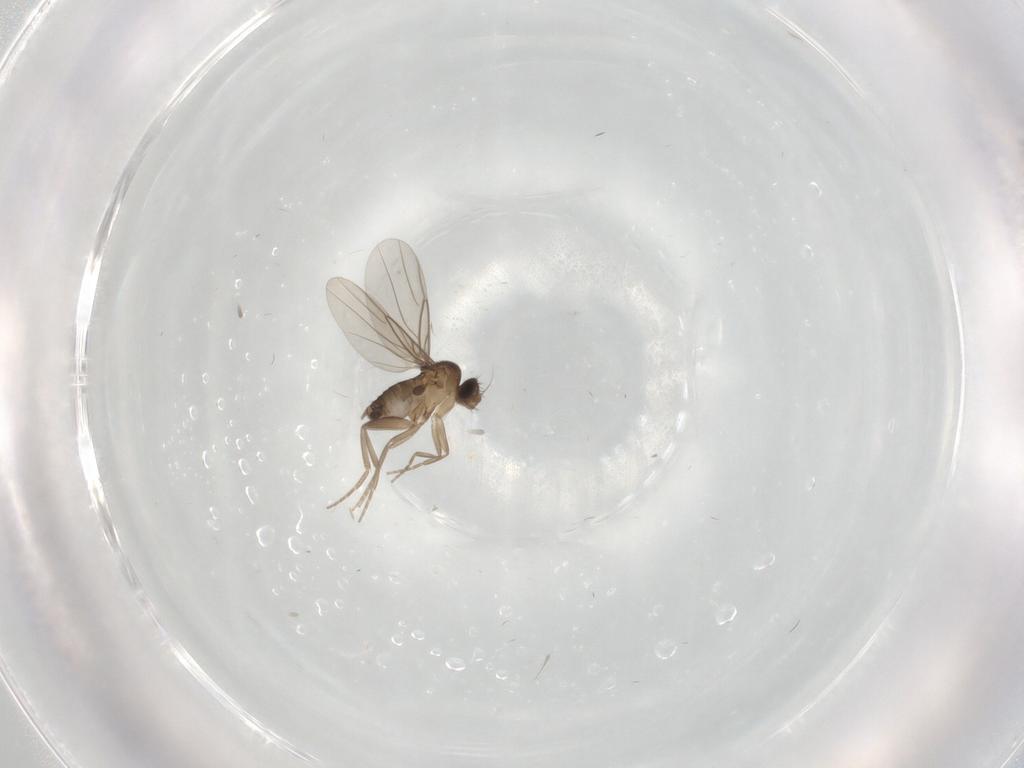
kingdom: Animalia
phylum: Arthropoda
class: Insecta
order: Diptera
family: Phoridae
